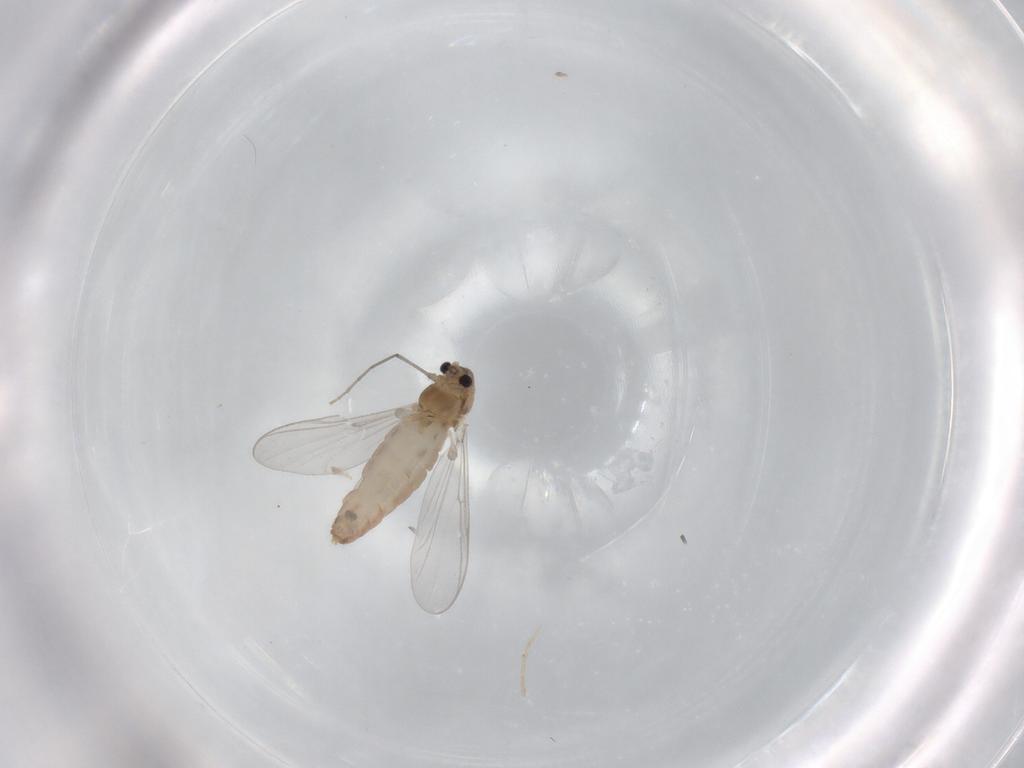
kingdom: Animalia
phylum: Arthropoda
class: Insecta
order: Diptera
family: Chironomidae
